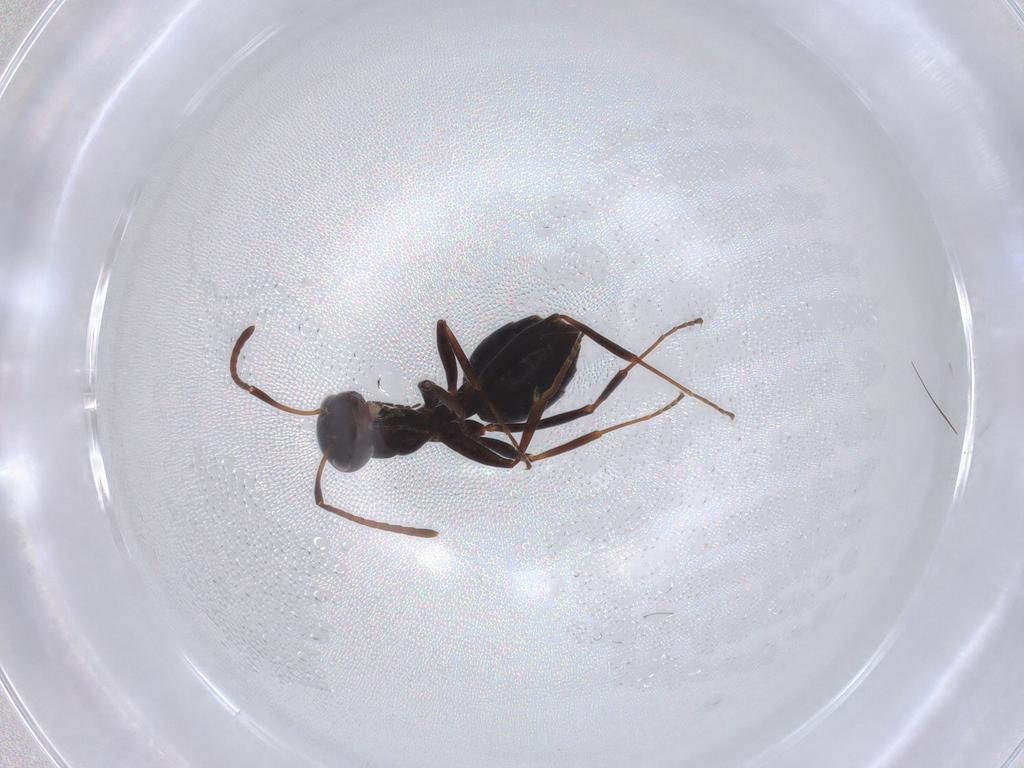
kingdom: Animalia
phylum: Arthropoda
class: Insecta
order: Hymenoptera
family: Formicidae
